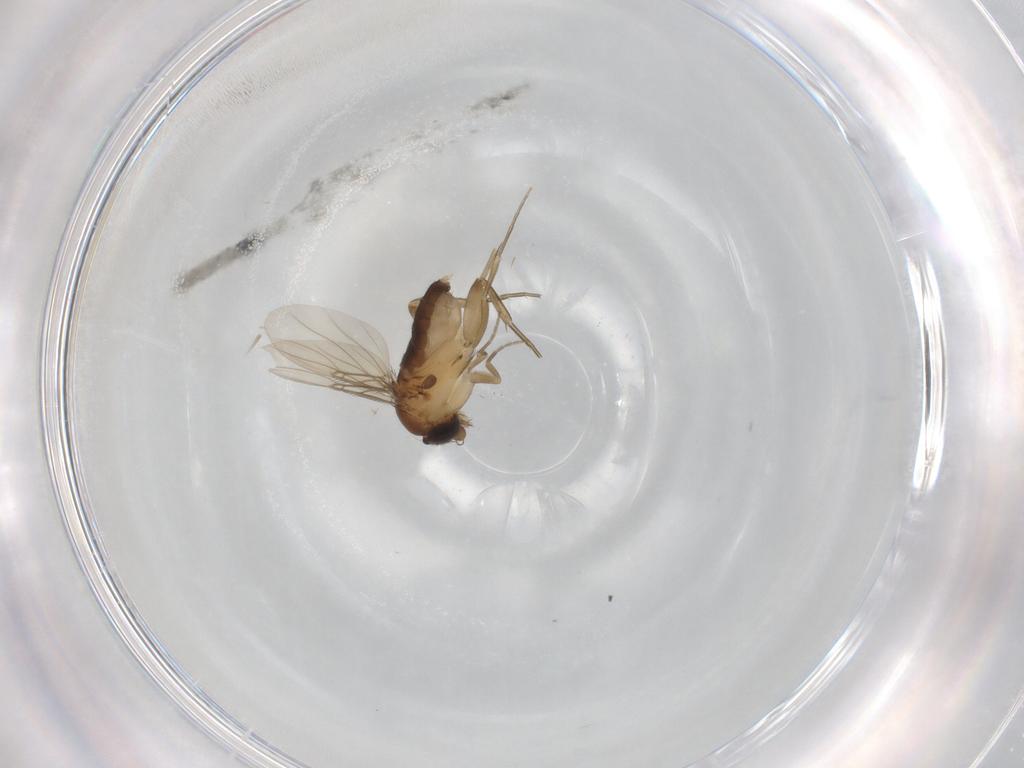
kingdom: Animalia
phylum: Arthropoda
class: Insecta
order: Diptera
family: Phoridae
